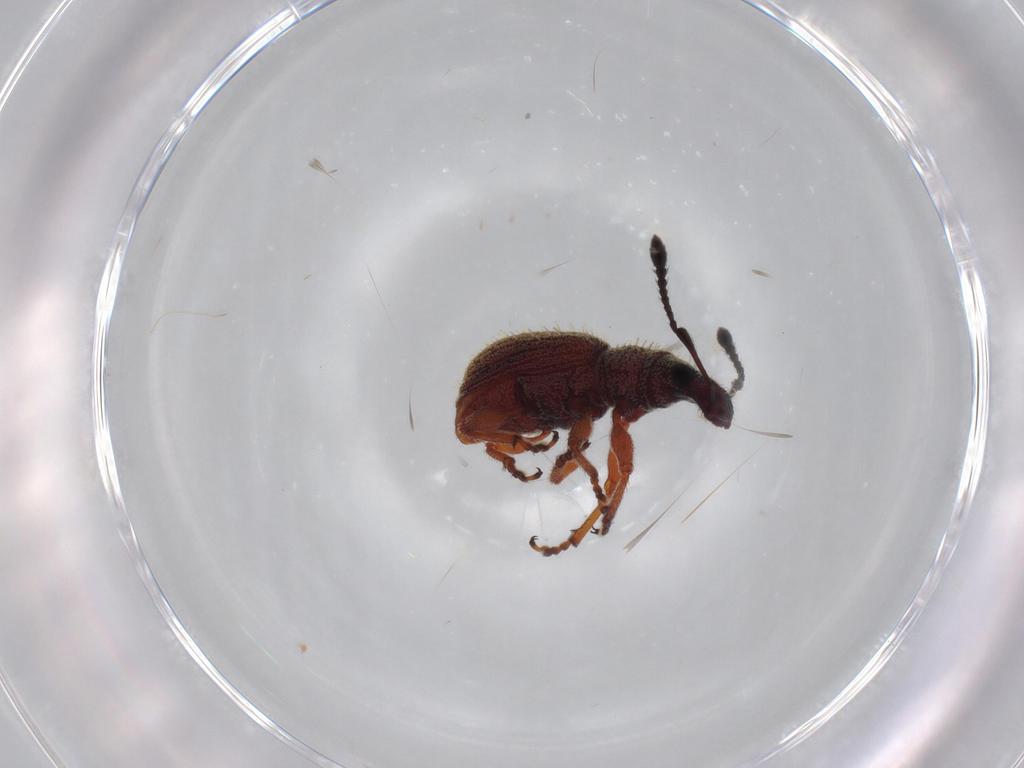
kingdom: Animalia
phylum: Arthropoda
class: Insecta
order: Coleoptera
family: Curculionidae
